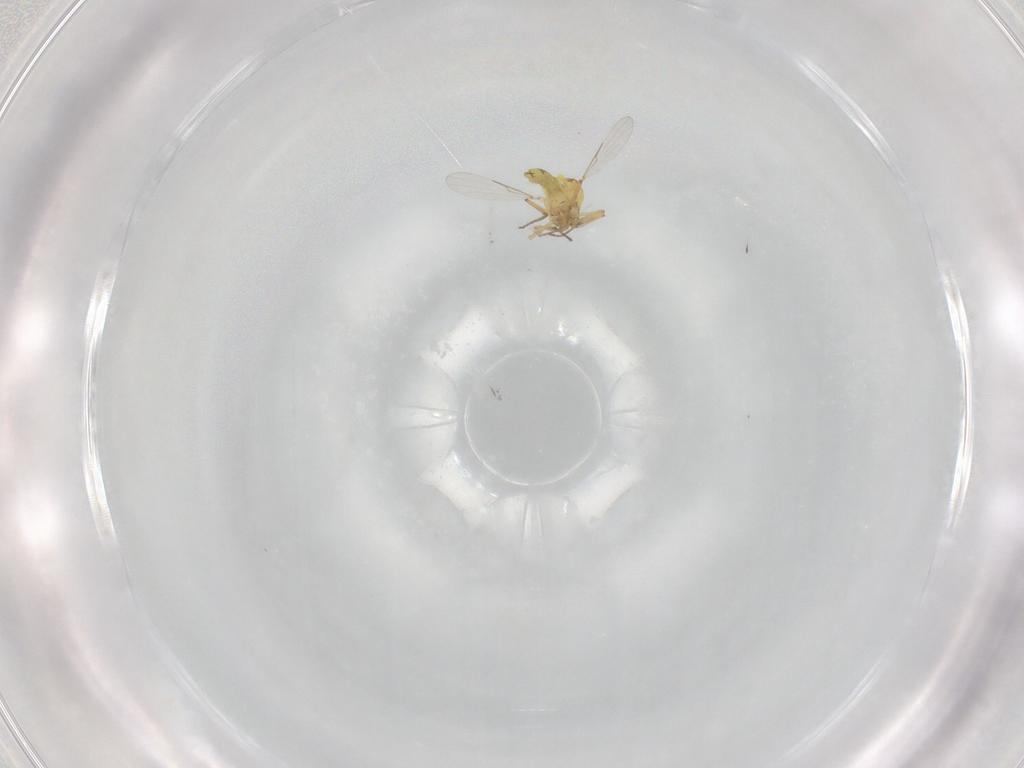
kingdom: Animalia
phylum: Arthropoda
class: Insecta
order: Diptera
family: Ceratopogonidae
